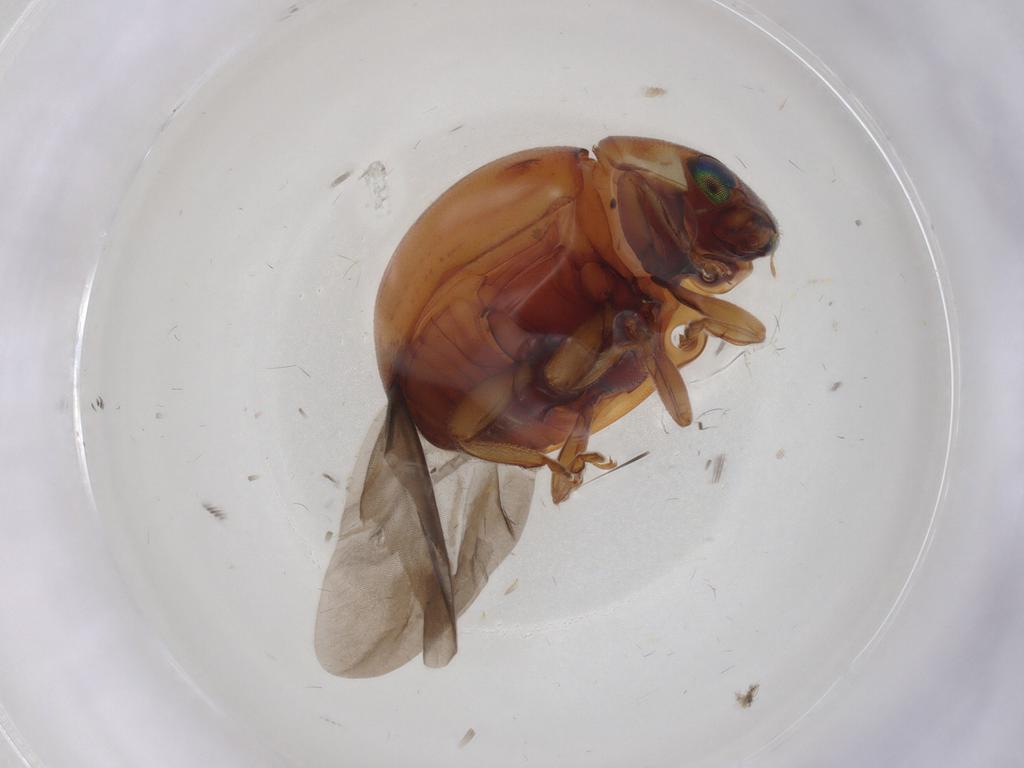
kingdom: Animalia
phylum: Arthropoda
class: Insecta
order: Coleoptera
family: Coccinellidae
